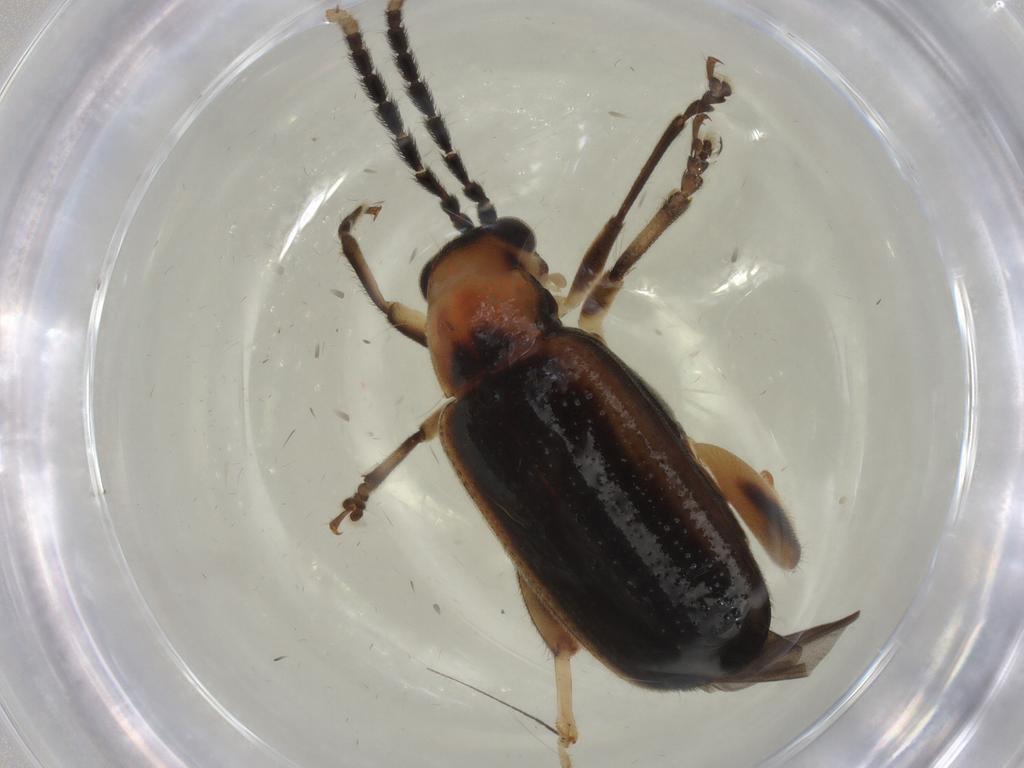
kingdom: Animalia
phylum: Arthropoda
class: Insecta
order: Coleoptera
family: Chrysomelidae
